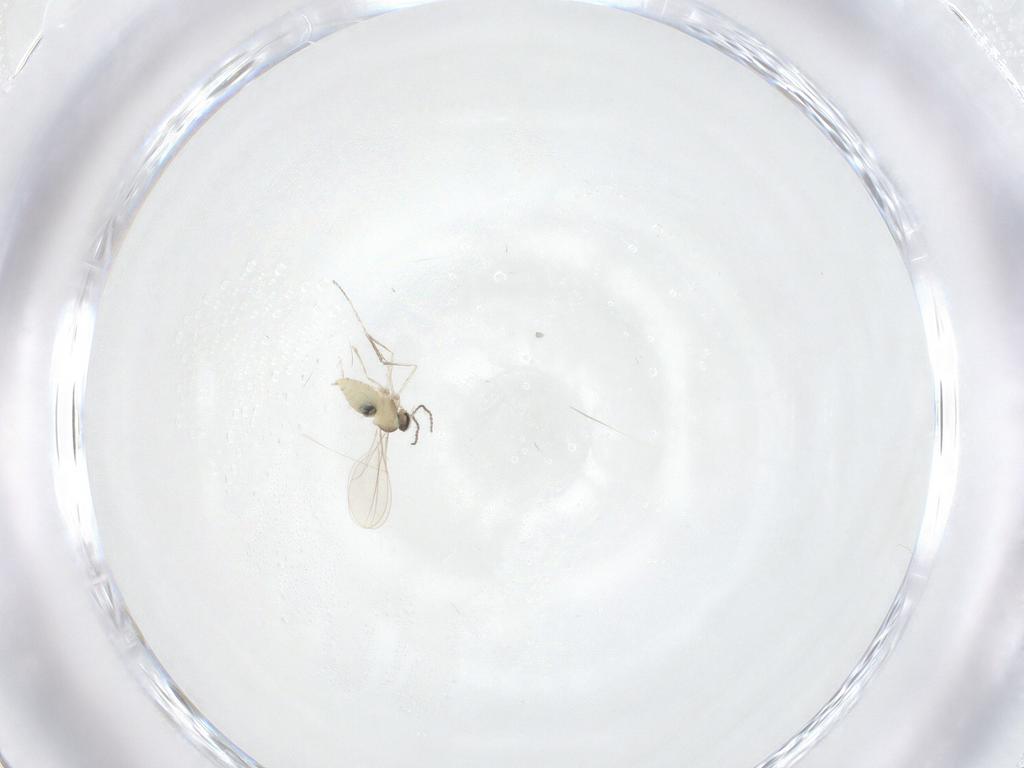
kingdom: Animalia
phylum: Arthropoda
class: Insecta
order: Diptera
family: Cecidomyiidae
